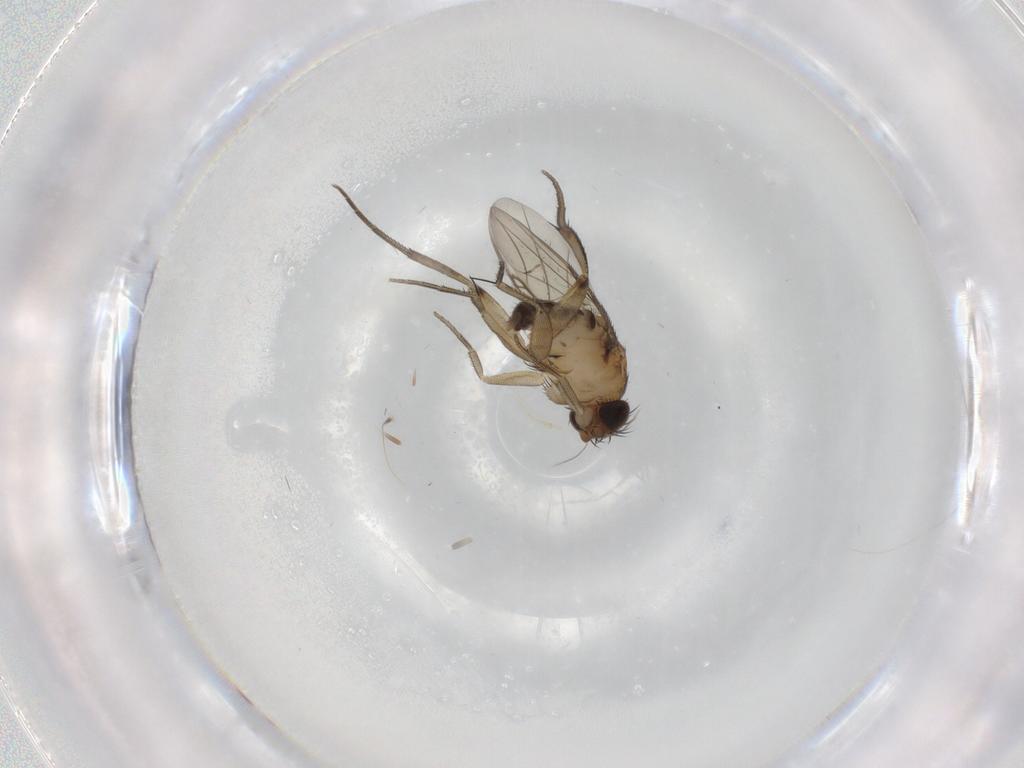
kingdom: Animalia
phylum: Arthropoda
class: Insecta
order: Diptera
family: Phoridae
